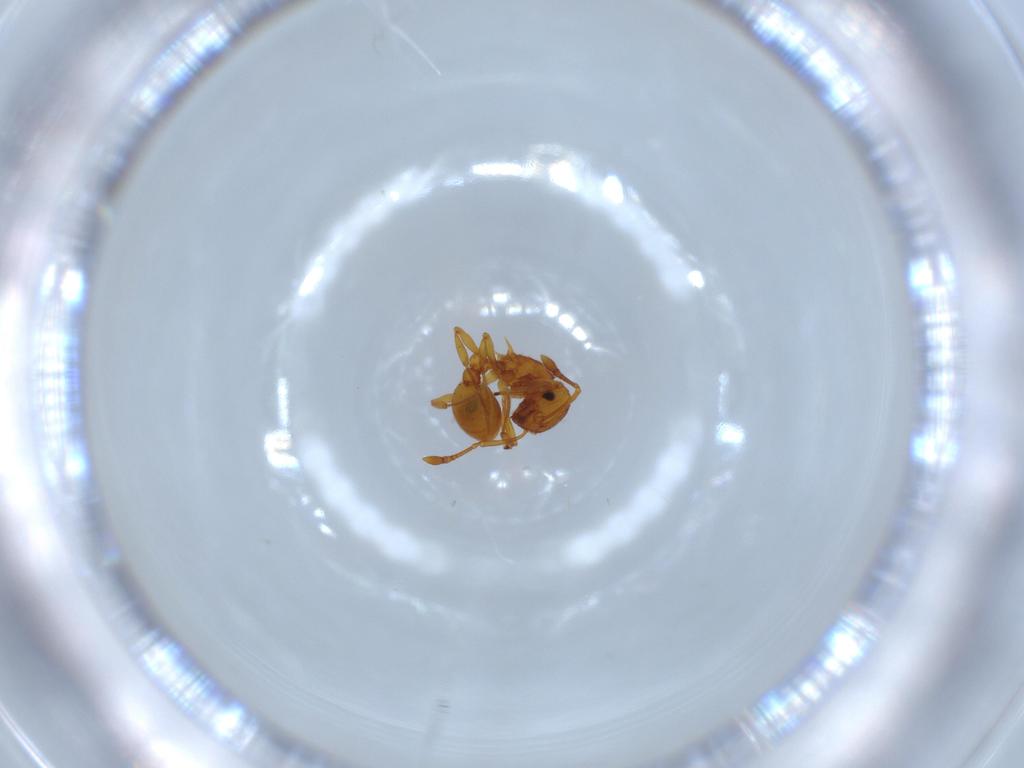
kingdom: Animalia
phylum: Arthropoda
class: Insecta
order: Hymenoptera
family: Formicidae
